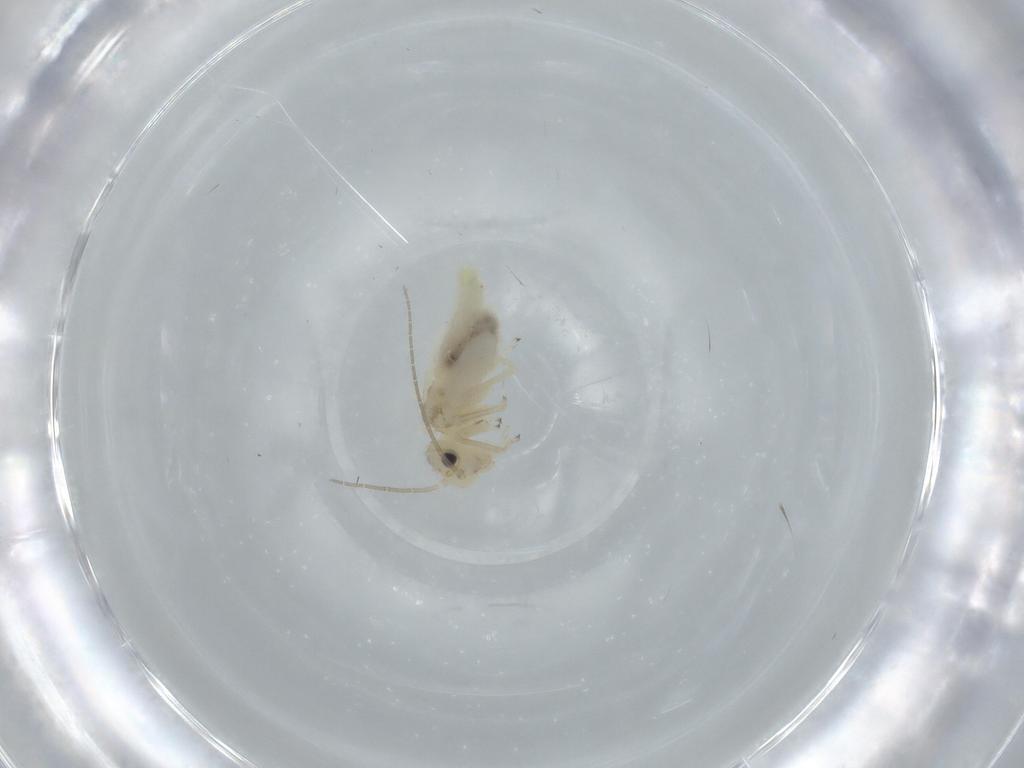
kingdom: Animalia
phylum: Arthropoda
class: Insecta
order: Psocodea
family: Caeciliusidae
